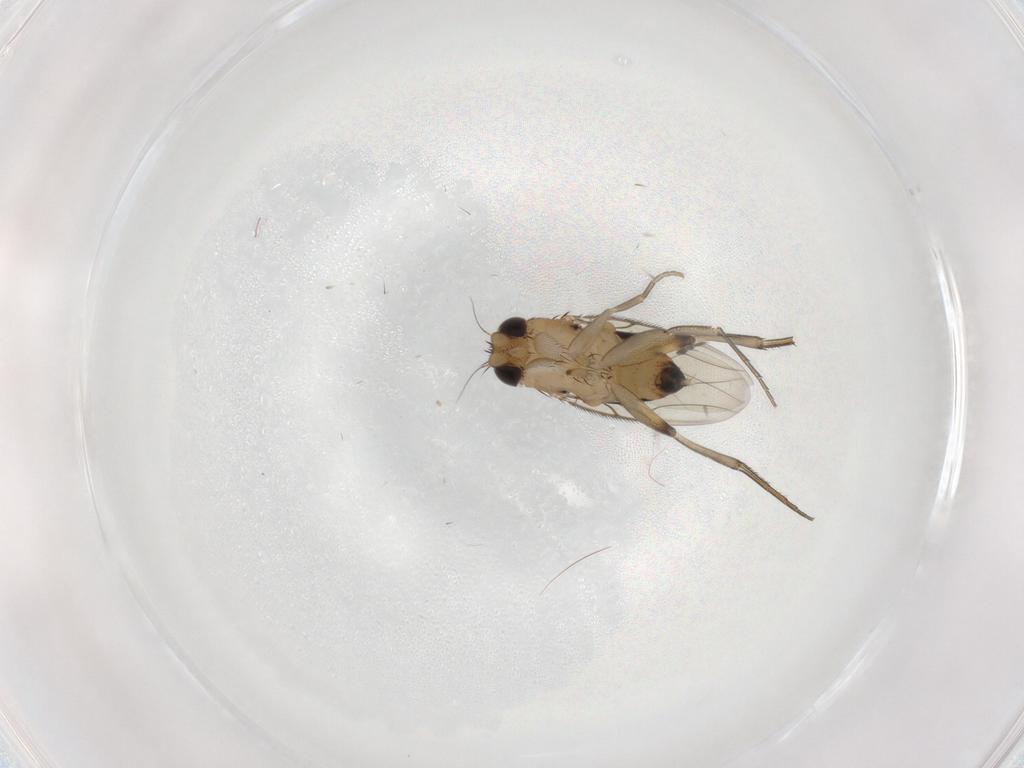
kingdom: Animalia
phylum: Arthropoda
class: Insecta
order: Diptera
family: Phoridae
